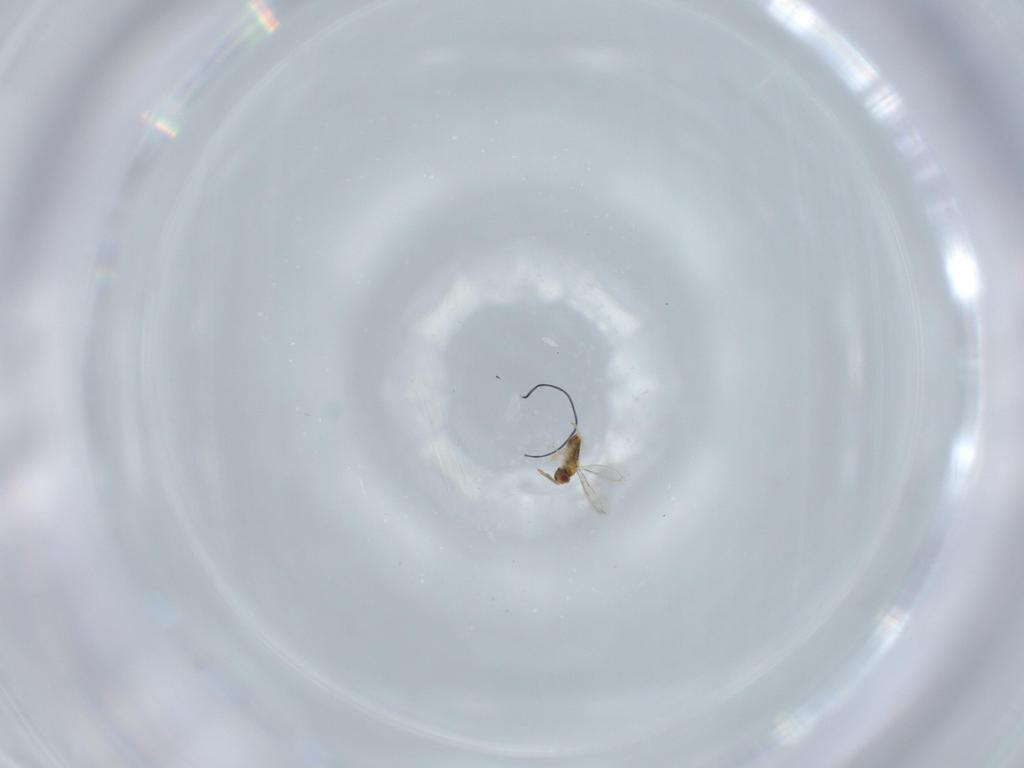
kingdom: Animalia
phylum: Arthropoda
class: Insecta
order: Hymenoptera
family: Aphelinidae
